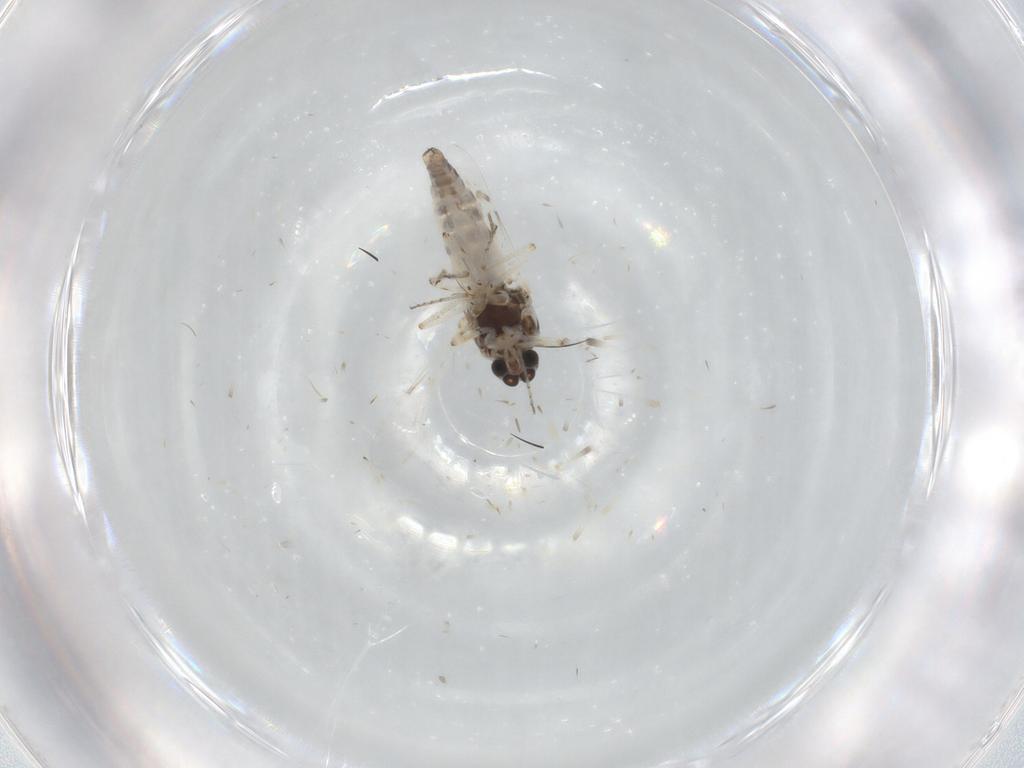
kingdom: Animalia
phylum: Arthropoda
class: Insecta
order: Diptera
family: Ceratopogonidae
